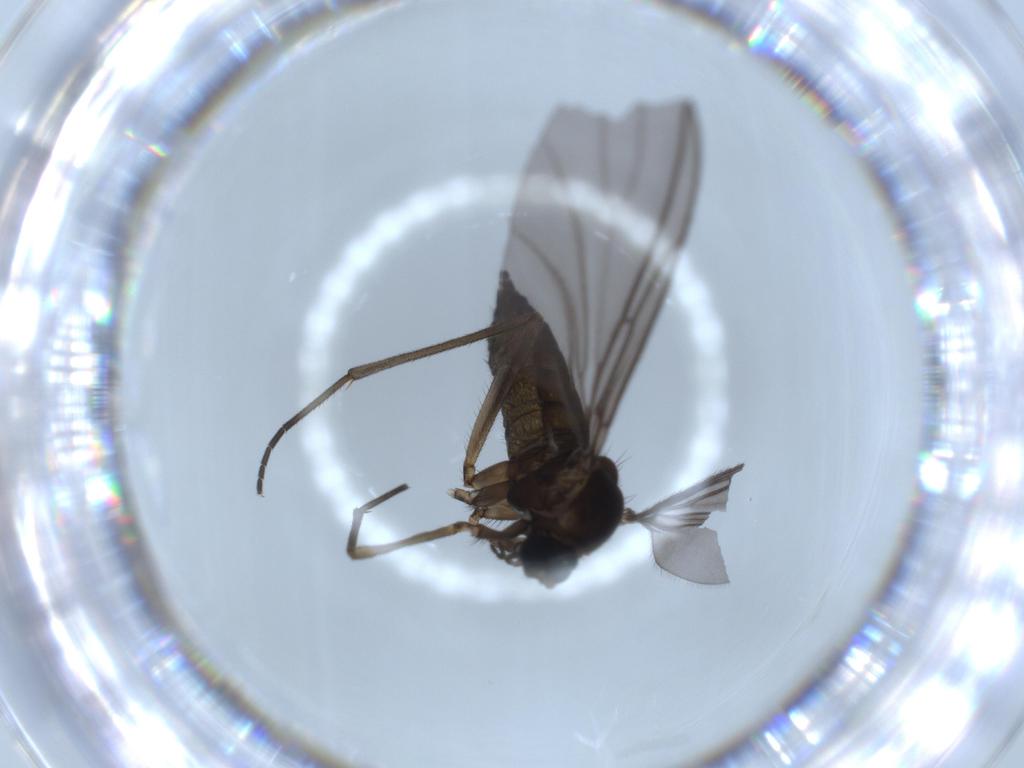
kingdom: Animalia
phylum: Arthropoda
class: Insecta
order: Diptera
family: Sciaridae
